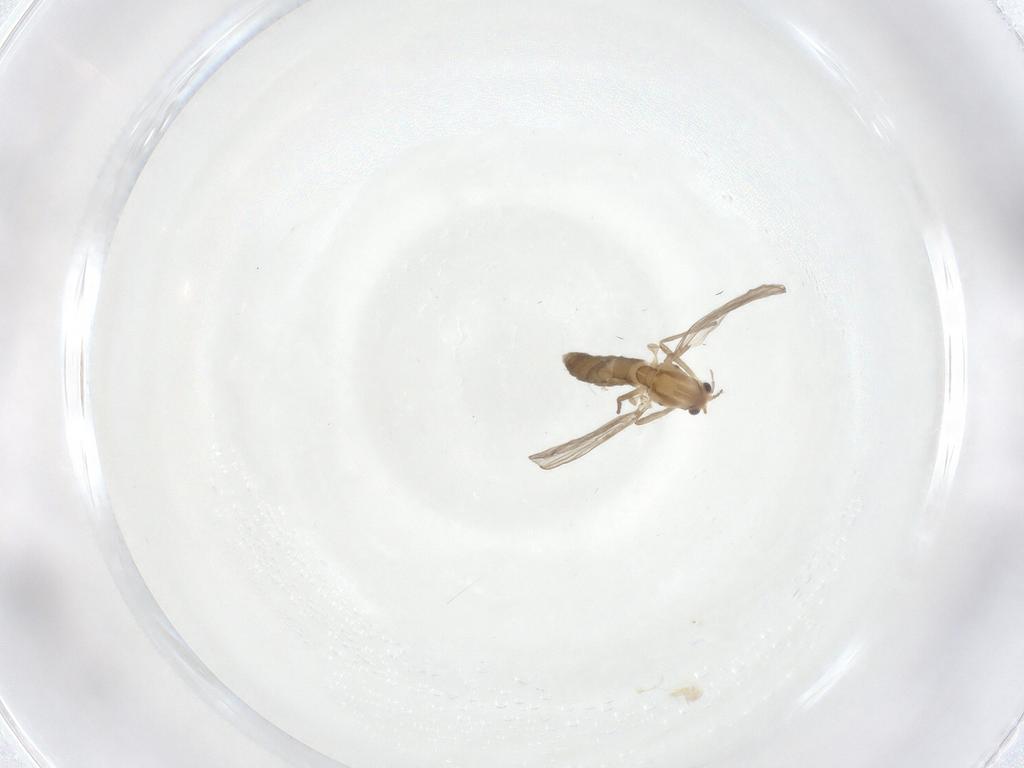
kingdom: Animalia
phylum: Arthropoda
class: Insecta
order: Diptera
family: Chironomidae
